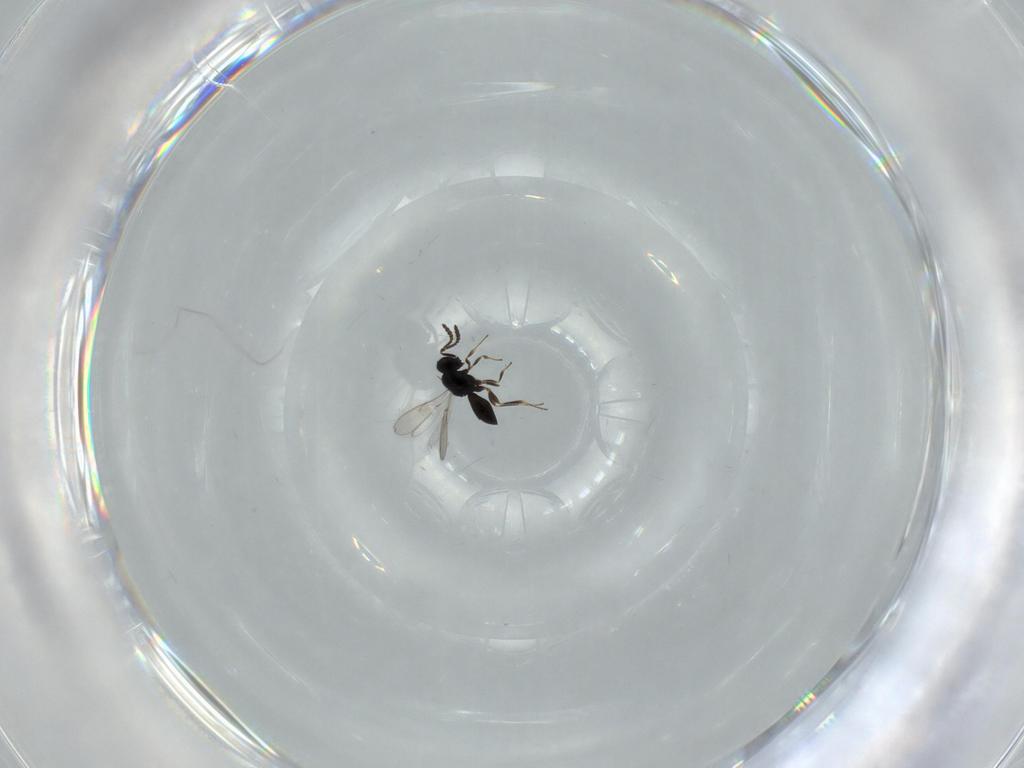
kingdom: Animalia
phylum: Arthropoda
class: Insecta
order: Hymenoptera
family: Scelionidae
